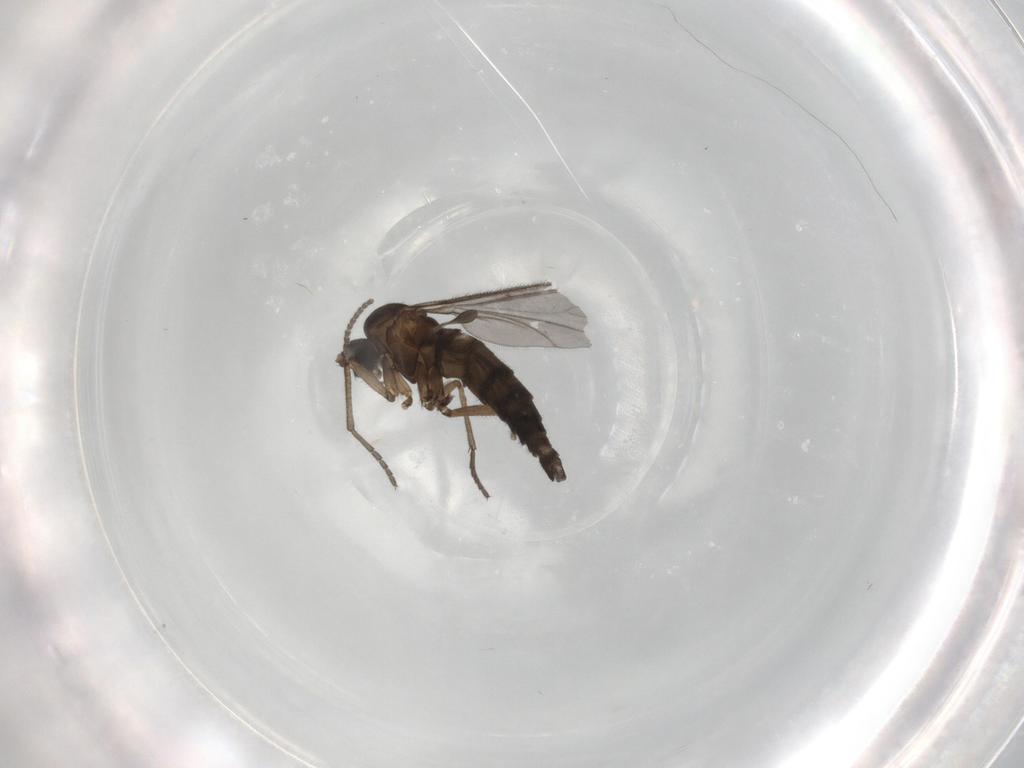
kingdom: Animalia
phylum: Arthropoda
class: Insecta
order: Diptera
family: Sciaridae
